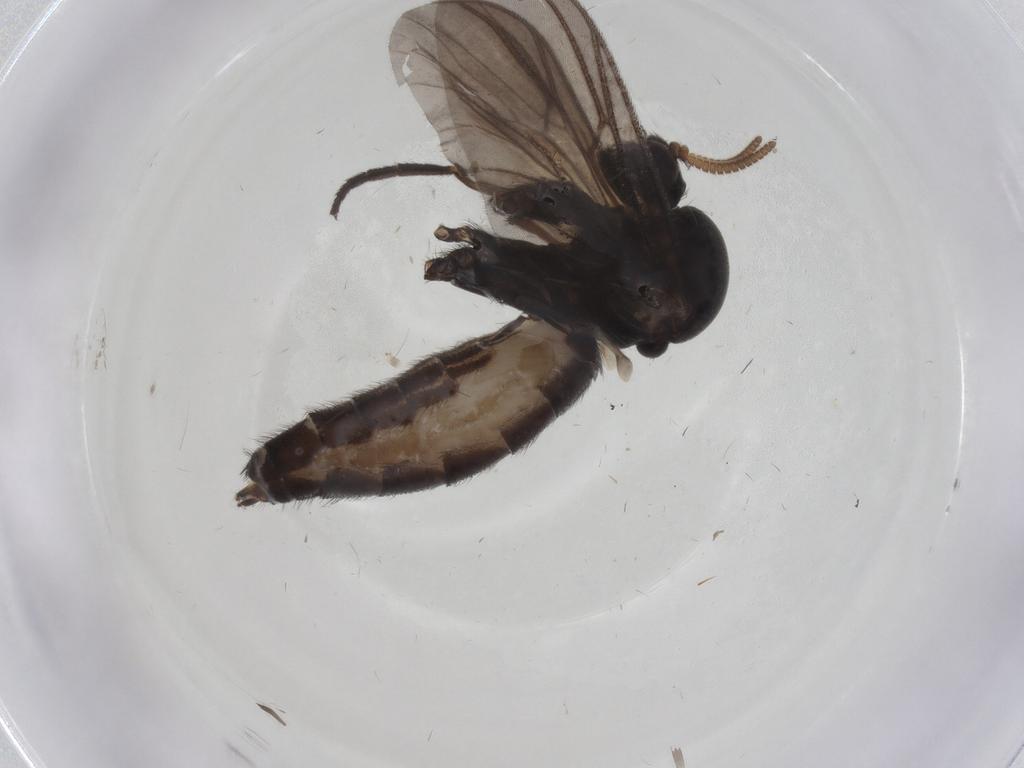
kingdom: Animalia
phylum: Arthropoda
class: Insecta
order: Diptera
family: Mycetophilidae
